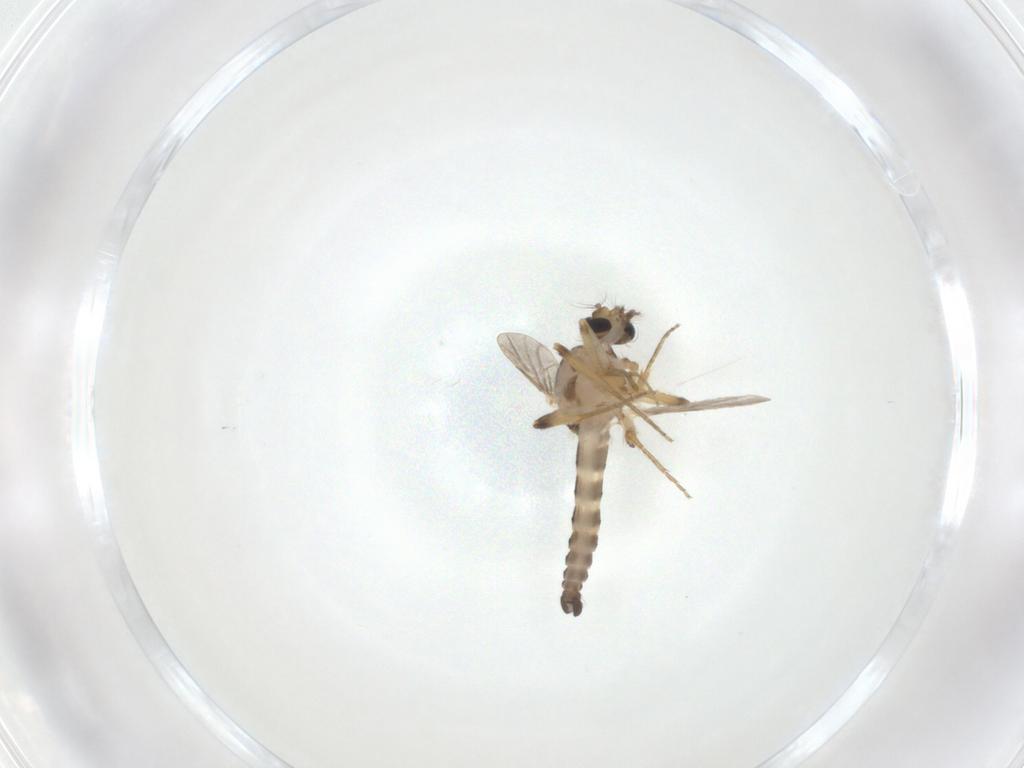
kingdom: Animalia
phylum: Arthropoda
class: Insecta
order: Diptera
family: Ceratopogonidae
